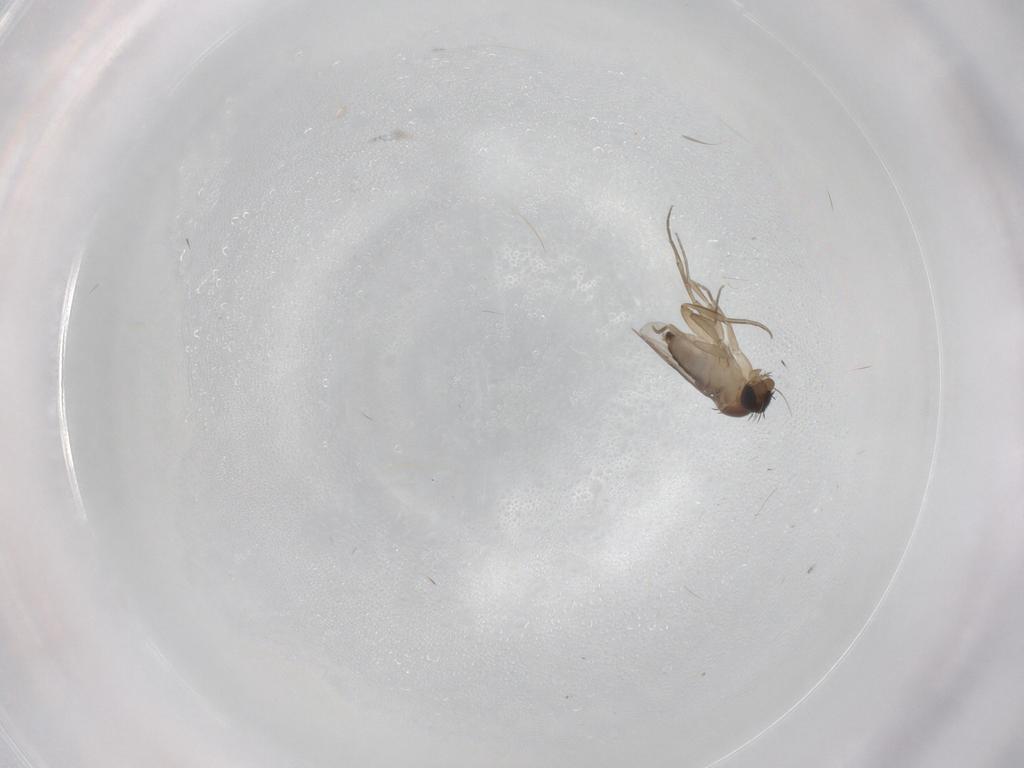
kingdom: Animalia
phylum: Arthropoda
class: Insecta
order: Diptera
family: Phoridae
